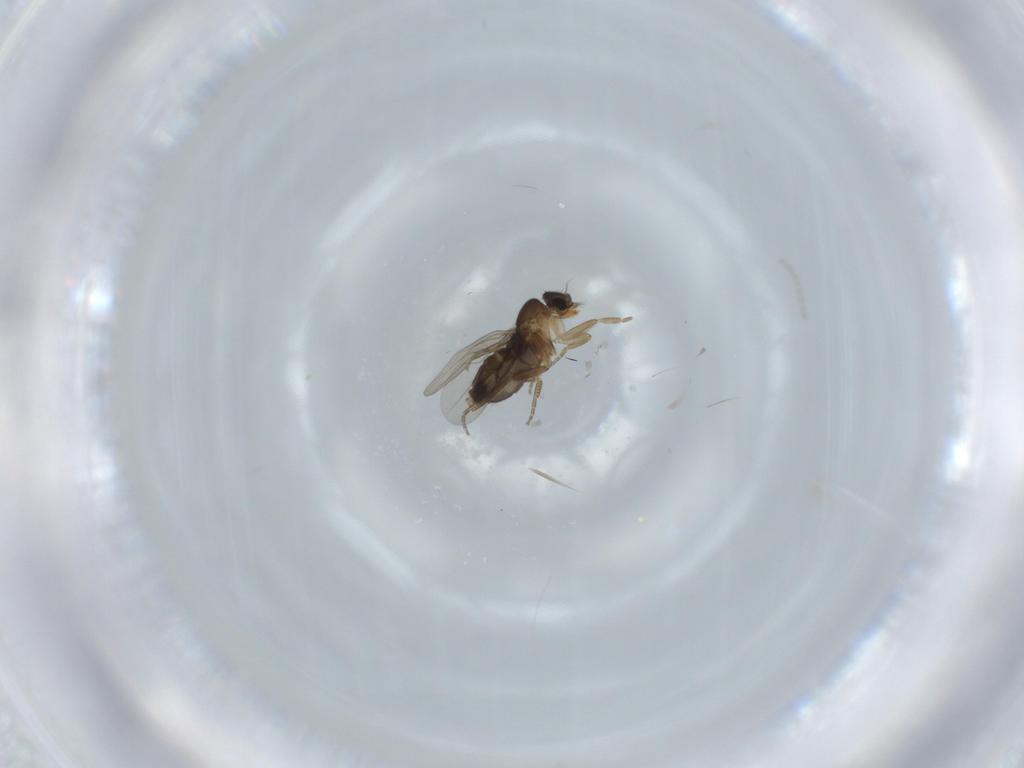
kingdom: Animalia
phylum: Arthropoda
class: Insecta
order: Diptera
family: Phoridae
